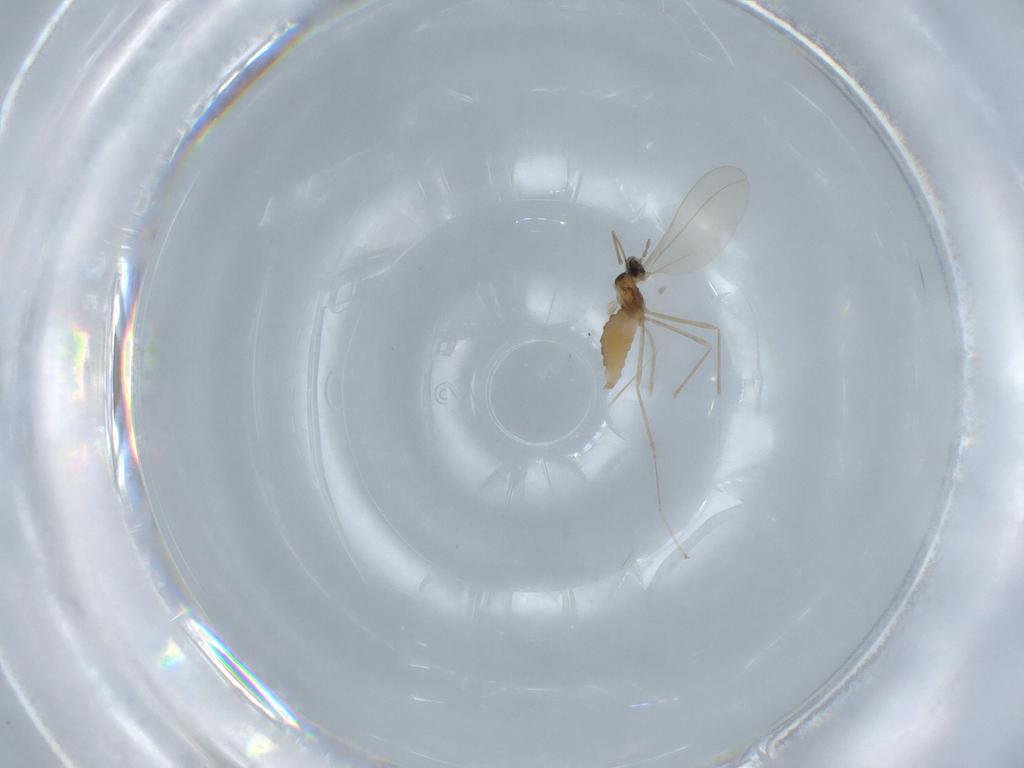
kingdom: Animalia
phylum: Arthropoda
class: Insecta
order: Diptera
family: Cecidomyiidae
